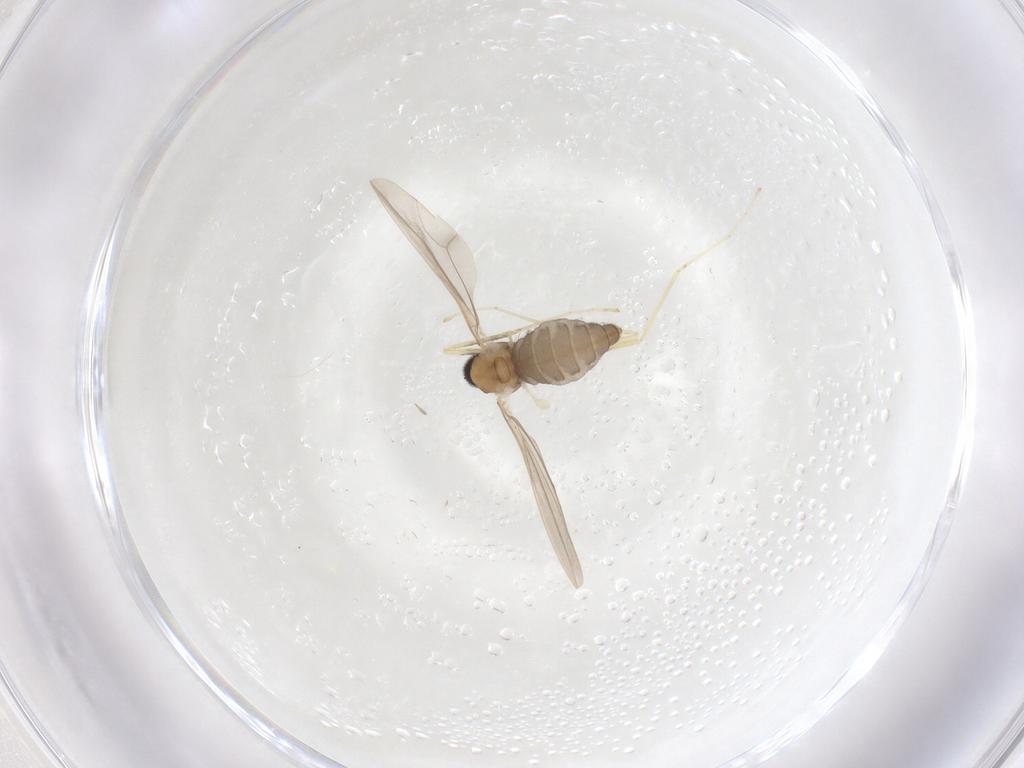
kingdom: Animalia
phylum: Arthropoda
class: Insecta
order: Diptera
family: Cecidomyiidae
